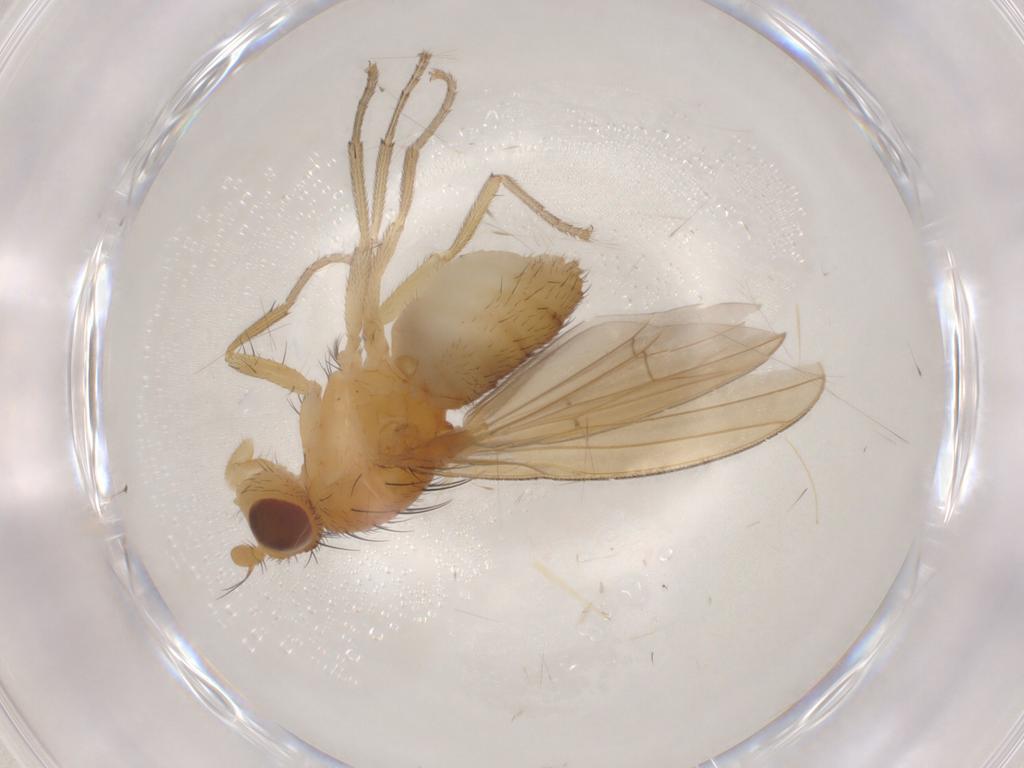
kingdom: Animalia
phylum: Arthropoda
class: Insecta
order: Diptera
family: Lauxaniidae
